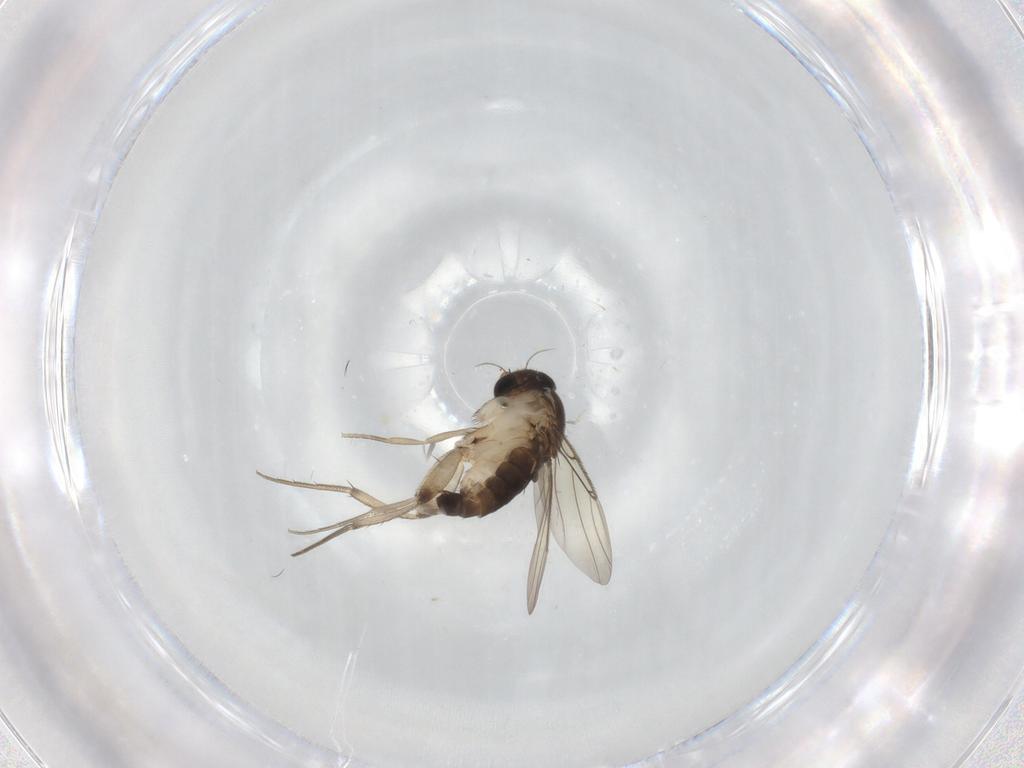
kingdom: Animalia
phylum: Arthropoda
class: Insecta
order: Diptera
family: Phoridae
